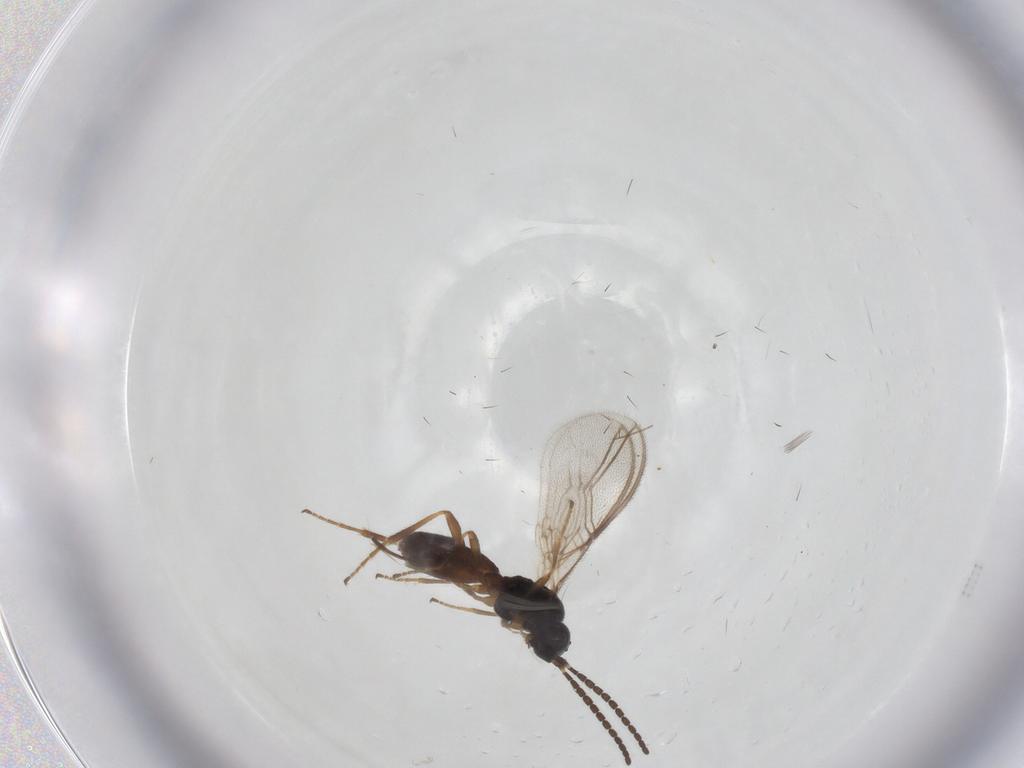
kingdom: Animalia
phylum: Arthropoda
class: Insecta
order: Hymenoptera
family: Braconidae
